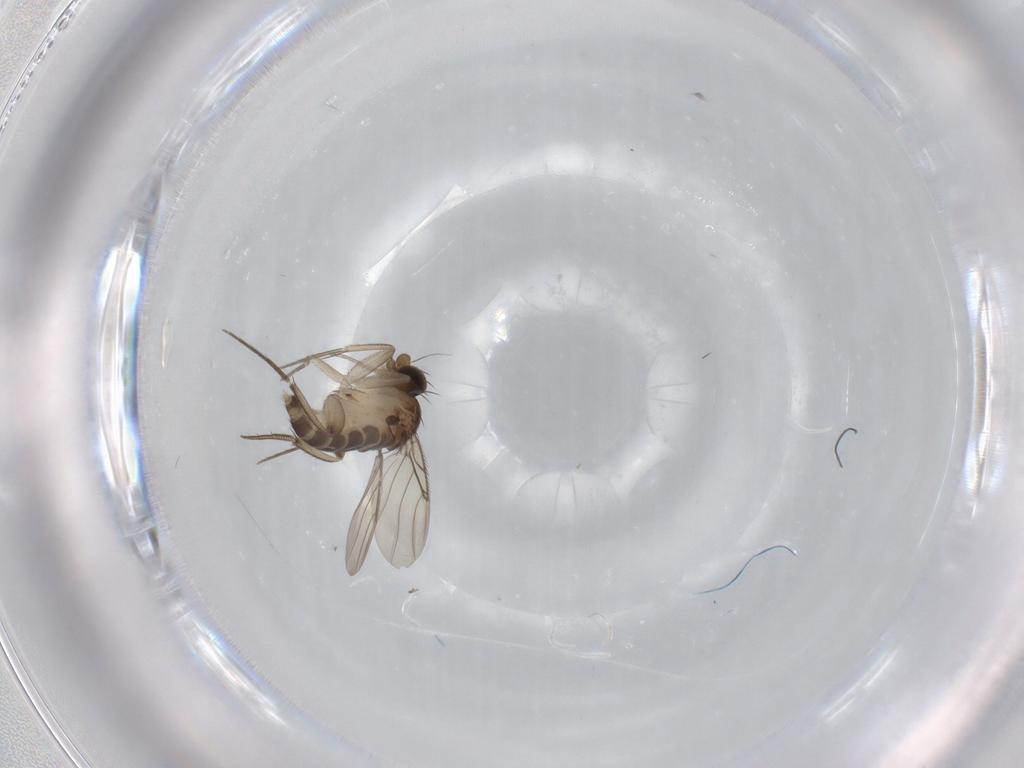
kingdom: Animalia
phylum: Arthropoda
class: Insecta
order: Diptera
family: Phoridae
